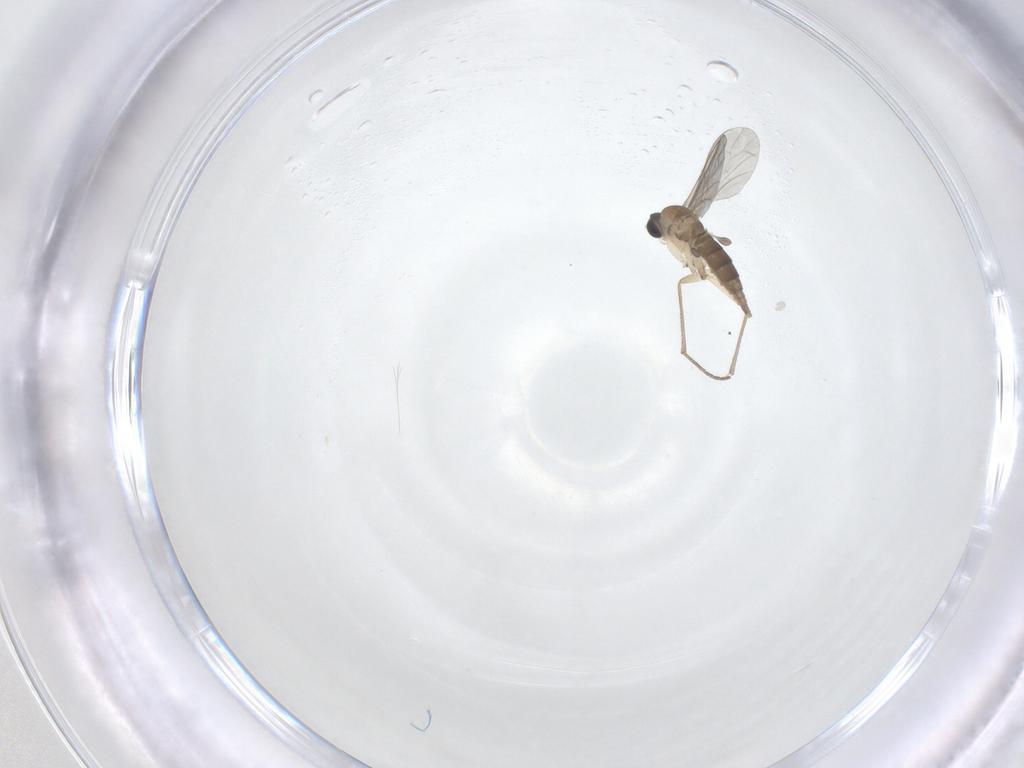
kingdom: Animalia
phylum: Arthropoda
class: Insecta
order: Diptera
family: Sciaridae
